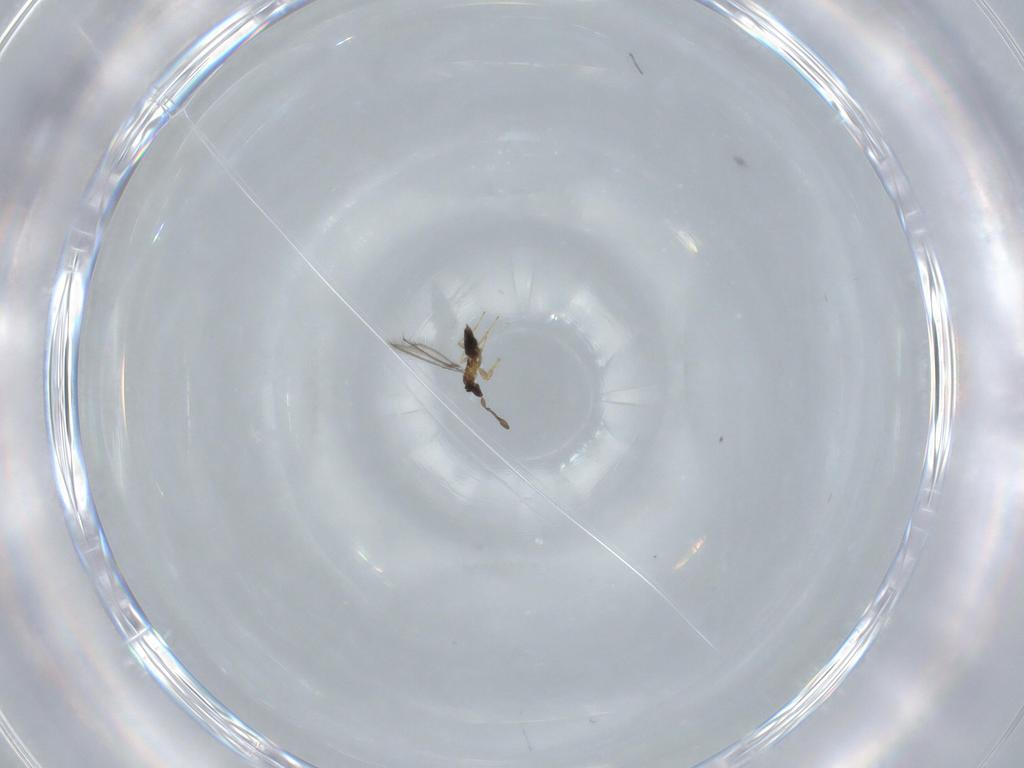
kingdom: Animalia
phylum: Arthropoda
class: Insecta
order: Hymenoptera
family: Mymaridae
